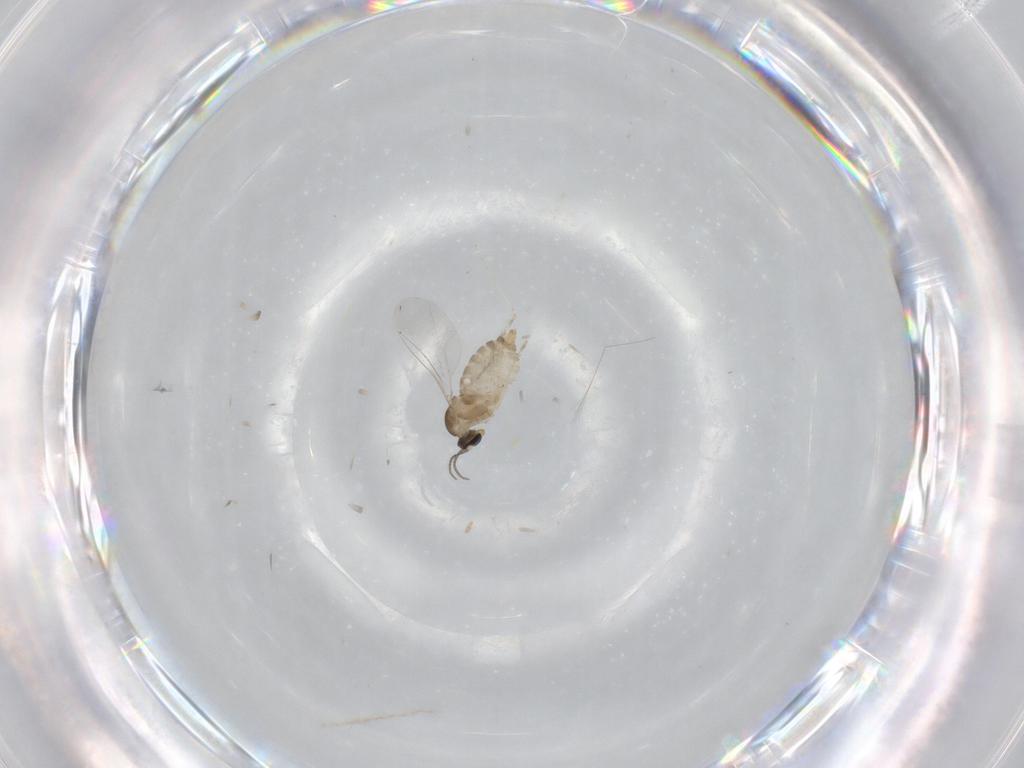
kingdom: Animalia
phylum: Arthropoda
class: Insecta
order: Diptera
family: Cecidomyiidae
